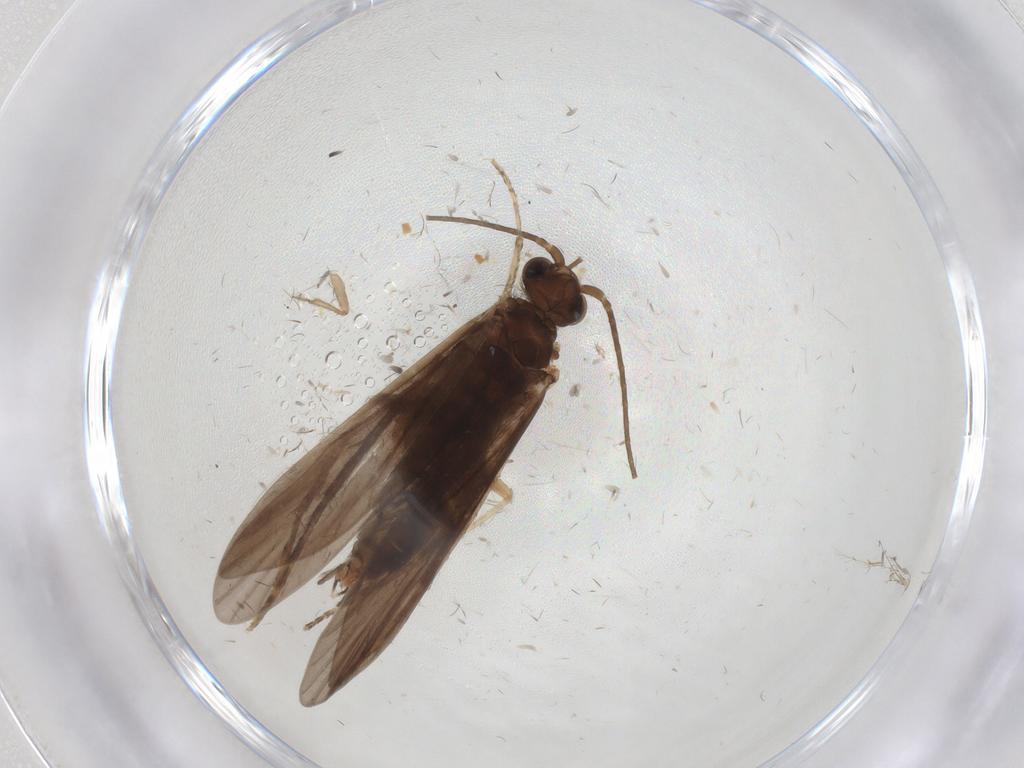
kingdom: Animalia
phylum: Arthropoda
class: Insecta
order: Trichoptera
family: Xiphocentronidae
